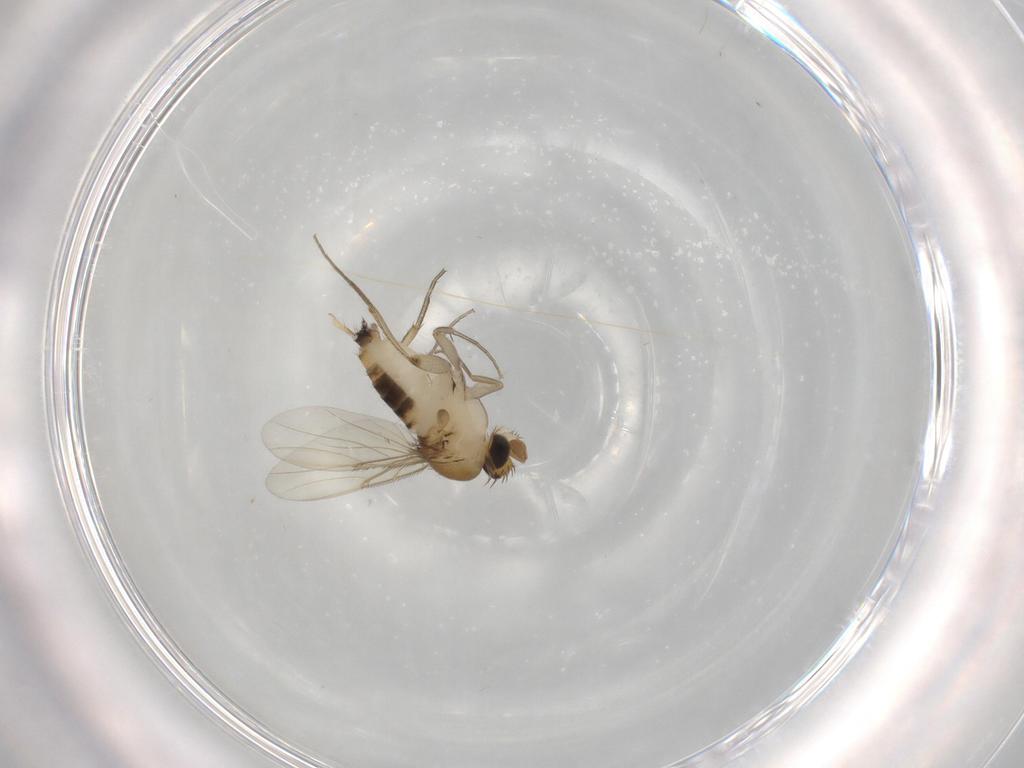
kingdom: Animalia
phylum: Arthropoda
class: Insecta
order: Diptera
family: Phoridae
